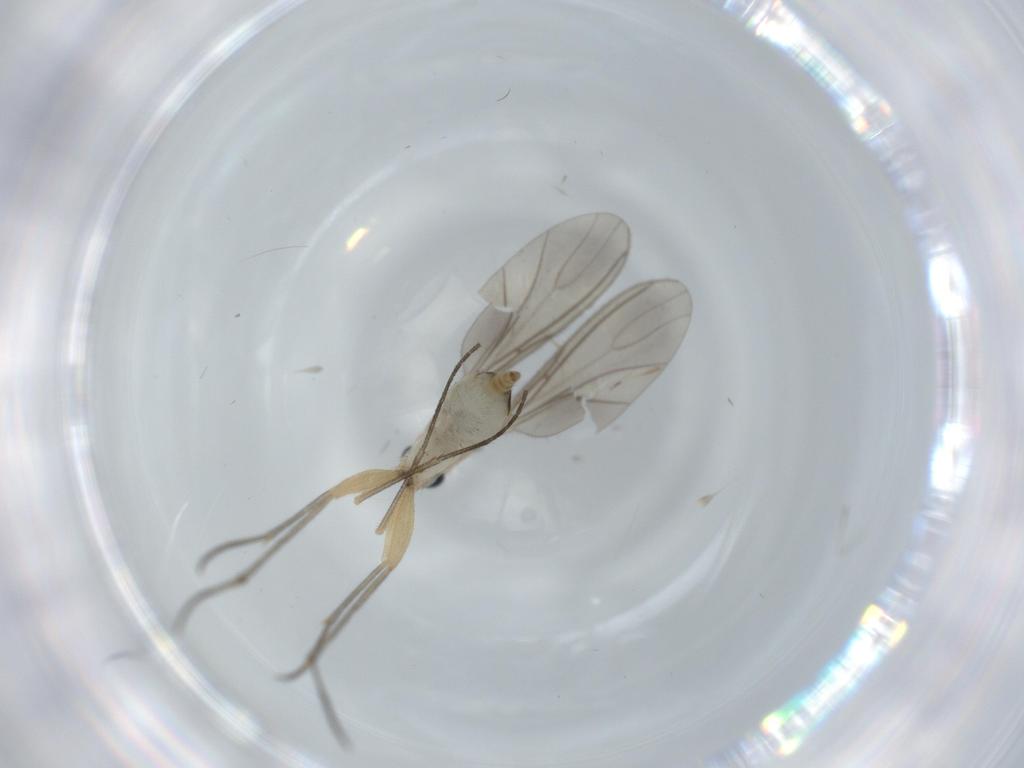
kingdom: Animalia
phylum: Arthropoda
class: Insecta
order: Diptera
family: Sciaridae
